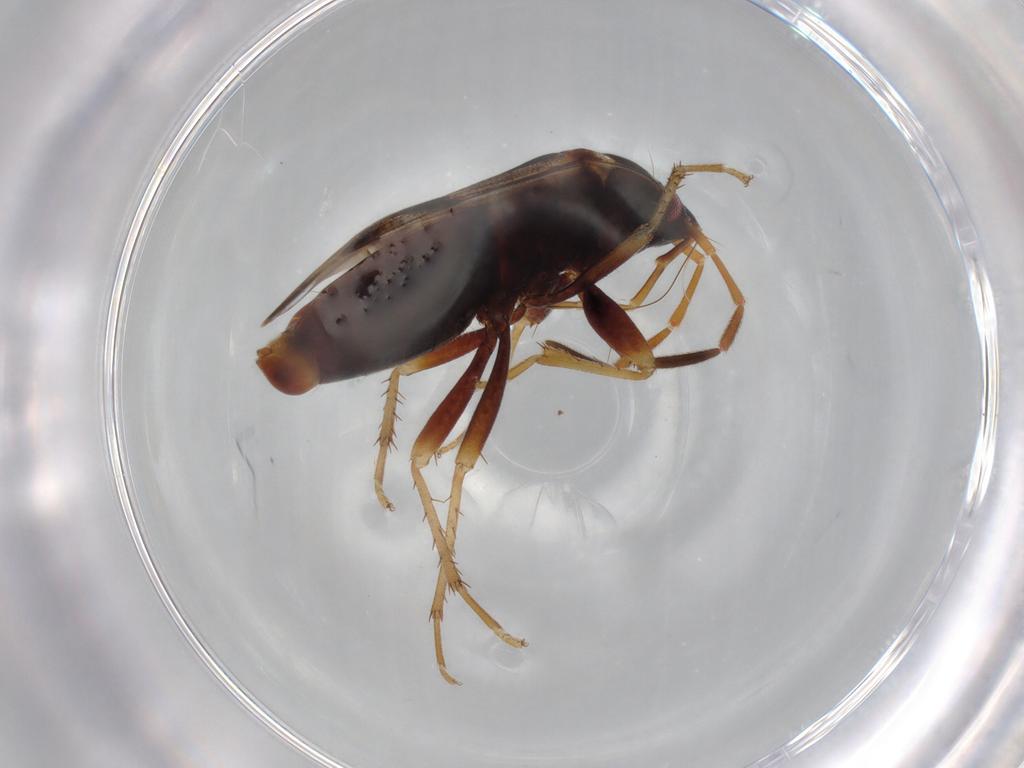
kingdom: Animalia
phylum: Arthropoda
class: Insecta
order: Hemiptera
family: Rhyparochromidae
